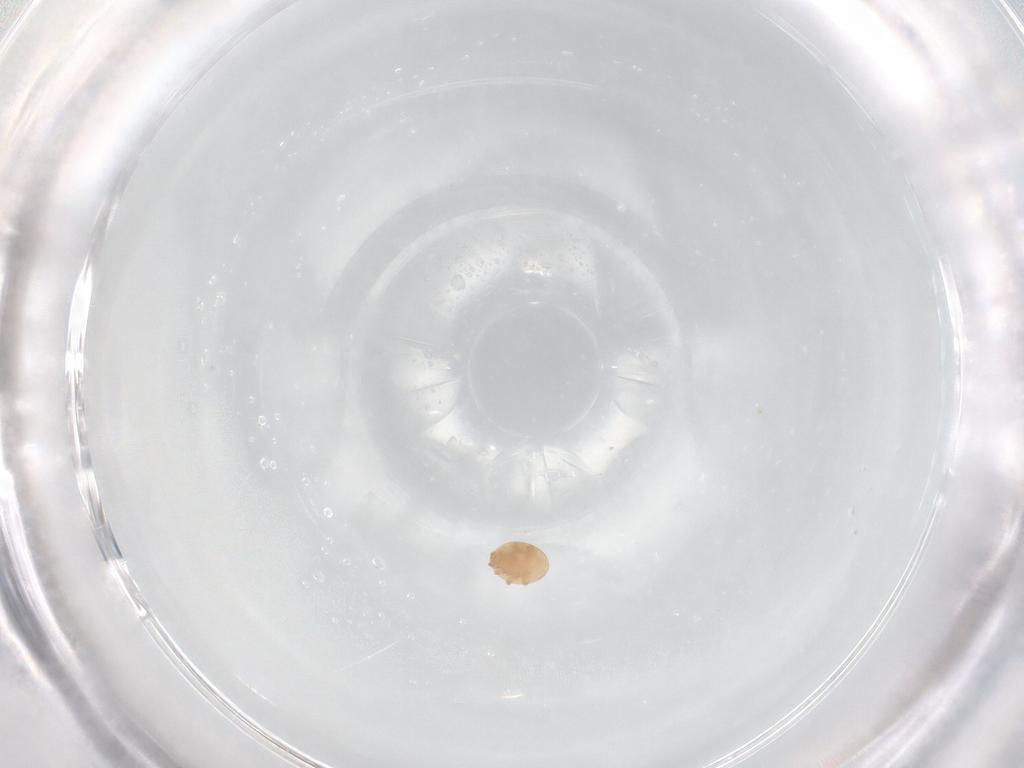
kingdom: Animalia
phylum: Arthropoda
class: Arachnida
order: Mesostigmata
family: Trematuridae
